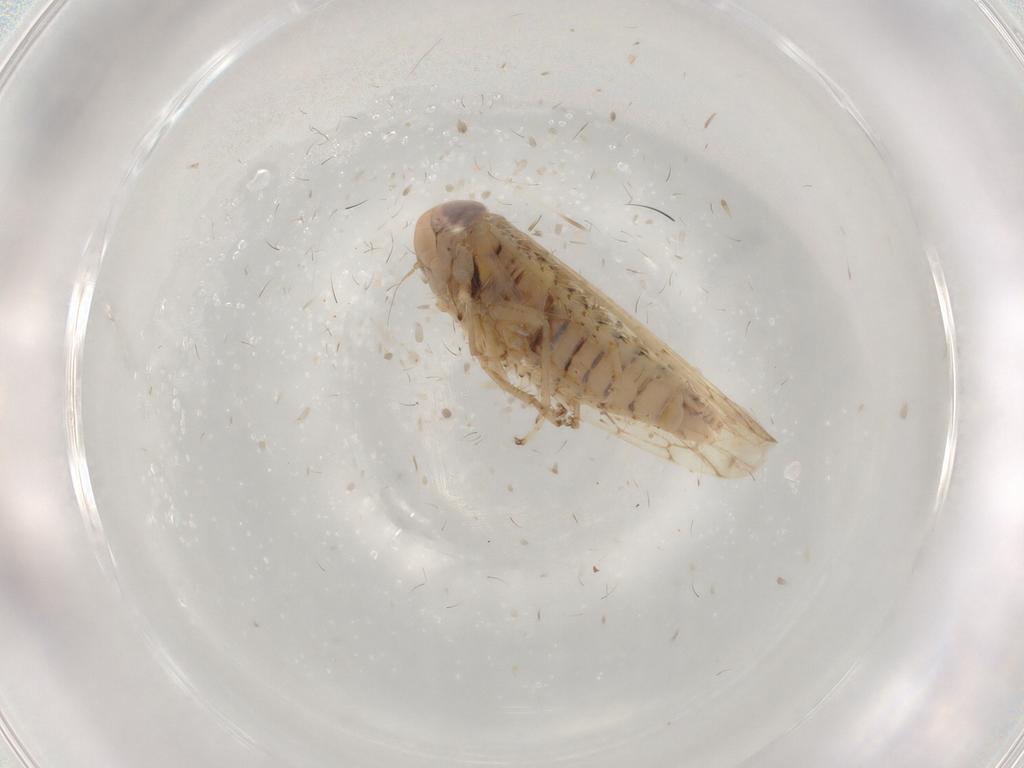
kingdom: Animalia
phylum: Arthropoda
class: Insecta
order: Hemiptera
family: Cicadellidae
